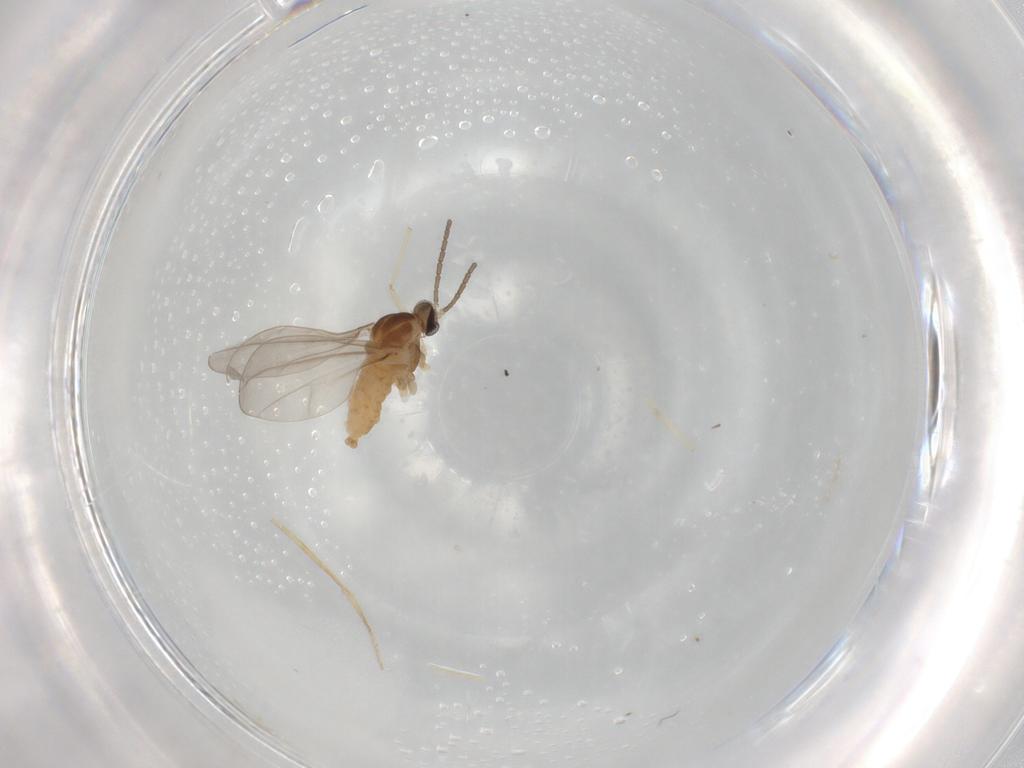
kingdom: Animalia
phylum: Arthropoda
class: Insecta
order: Diptera
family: Cecidomyiidae
